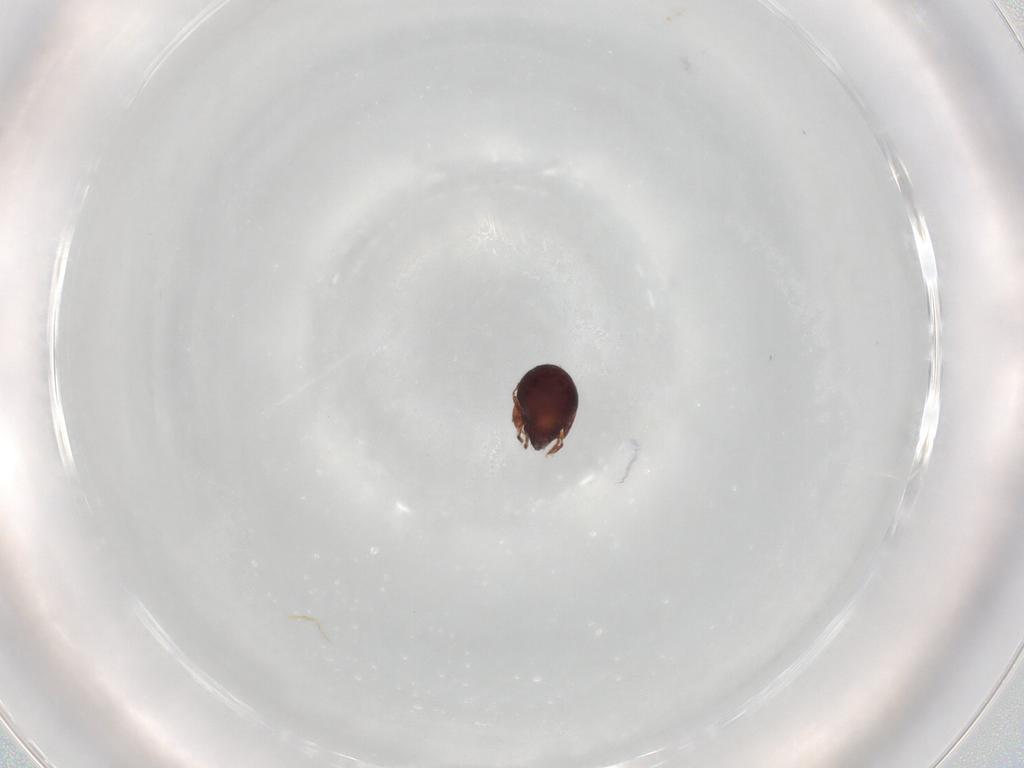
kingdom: Animalia
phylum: Arthropoda
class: Arachnida
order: Sarcoptiformes
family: Humerobatidae
